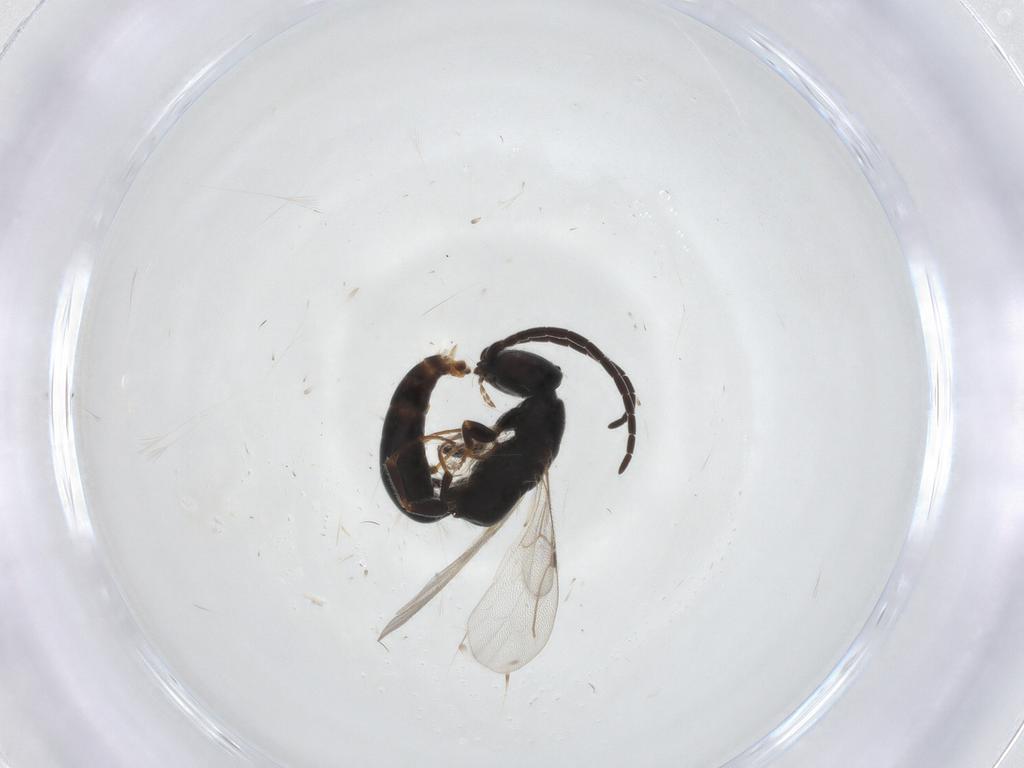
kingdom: Animalia
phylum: Arthropoda
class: Insecta
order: Hymenoptera
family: Bethylidae
